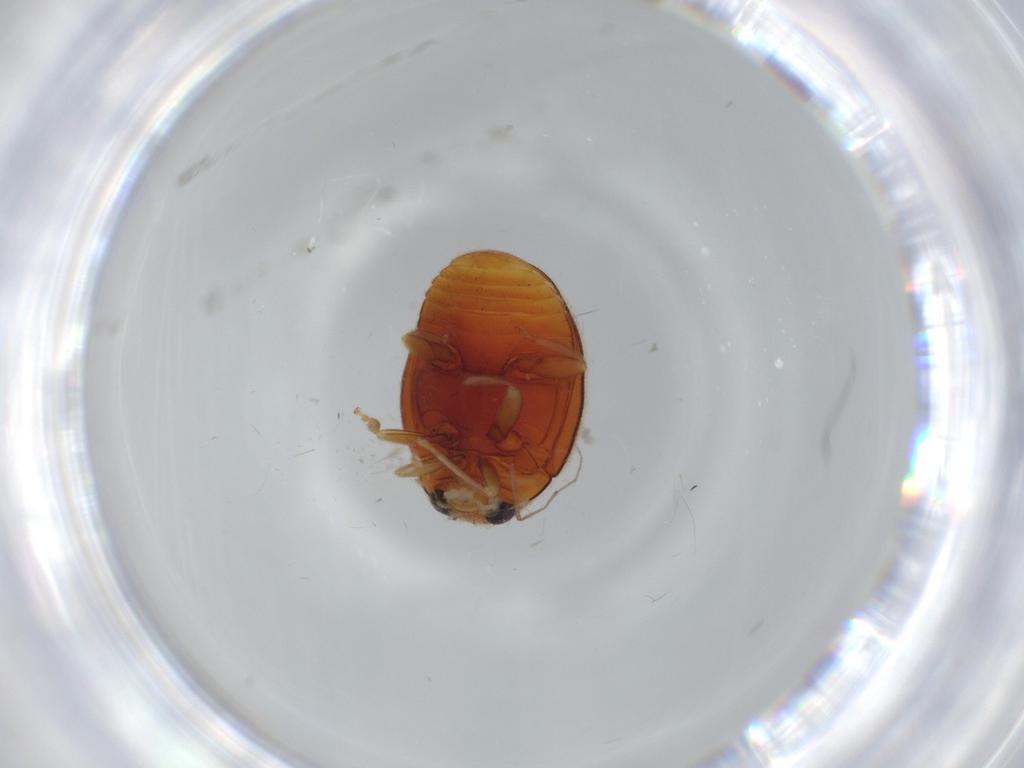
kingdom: Animalia
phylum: Arthropoda
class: Insecta
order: Coleoptera
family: Coccinellidae
